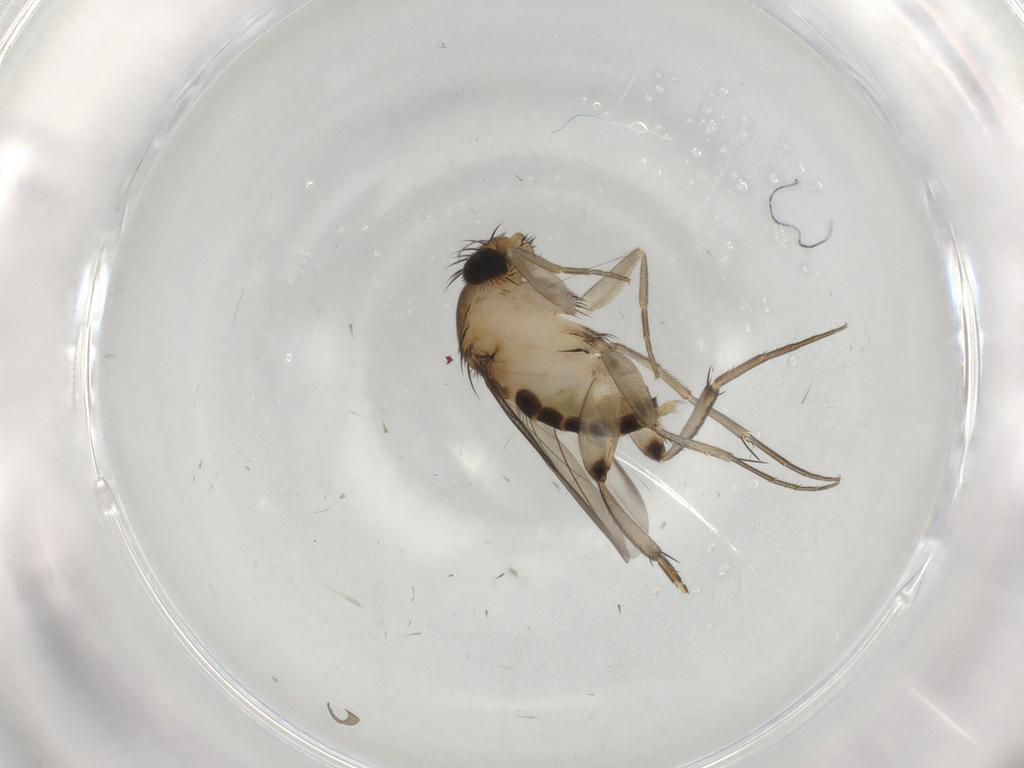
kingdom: Animalia
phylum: Arthropoda
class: Insecta
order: Diptera
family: Phoridae
